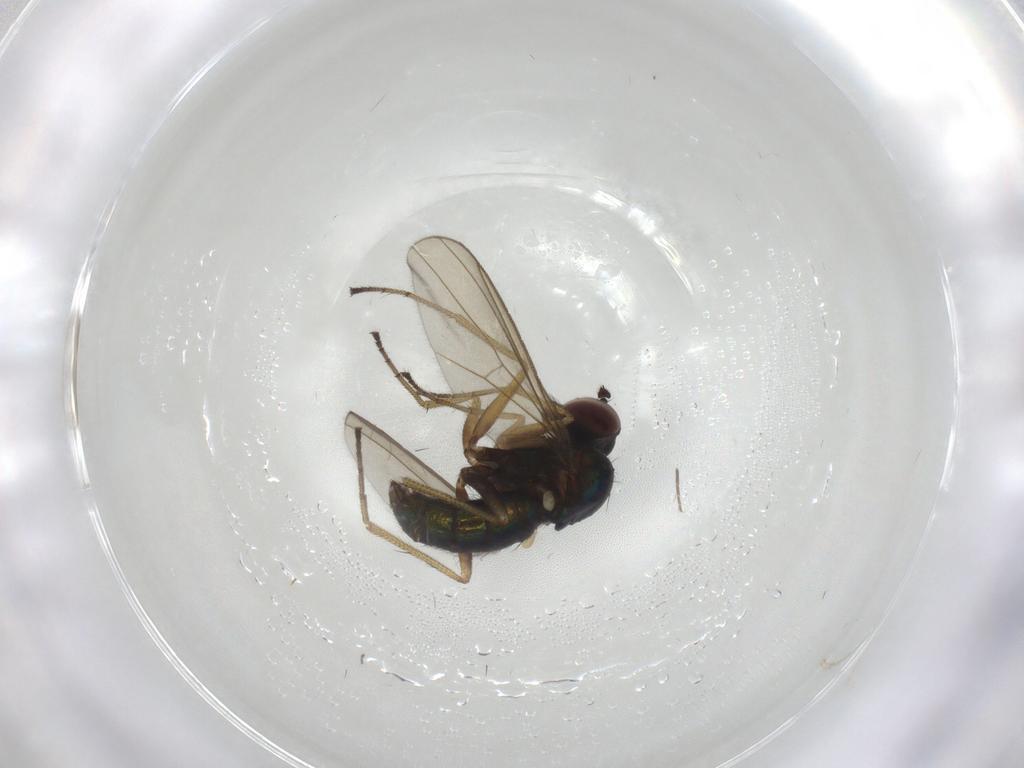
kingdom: Animalia
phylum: Arthropoda
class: Insecta
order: Diptera
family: Dolichopodidae
